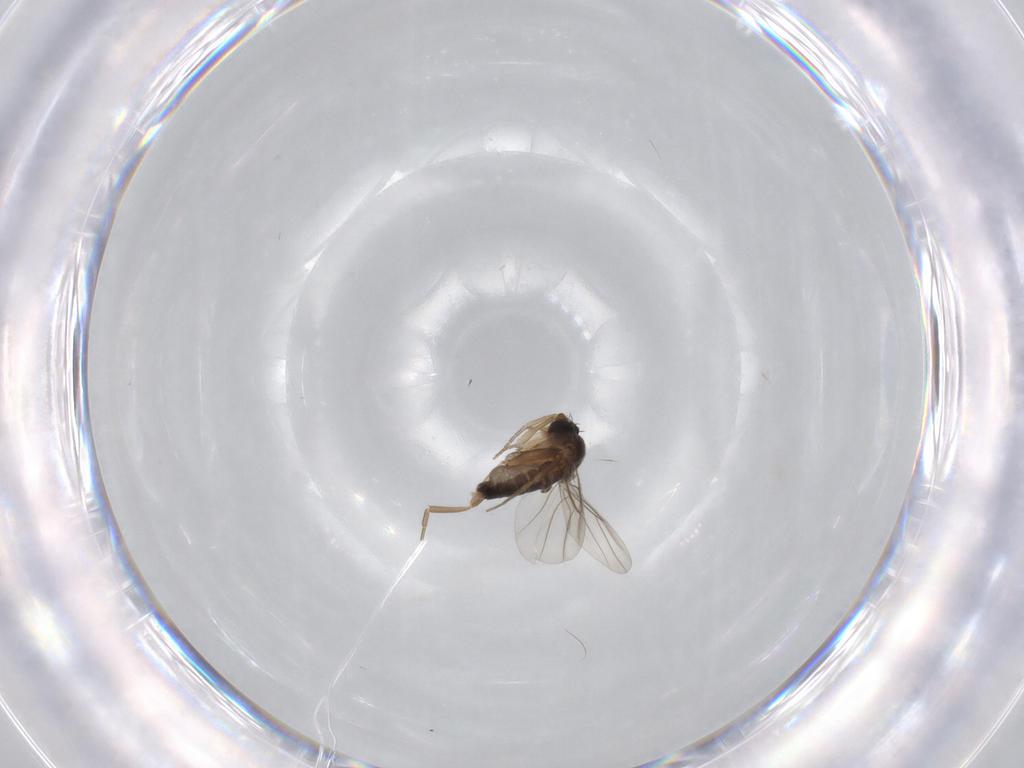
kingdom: Animalia
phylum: Arthropoda
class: Insecta
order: Diptera
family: Phoridae
